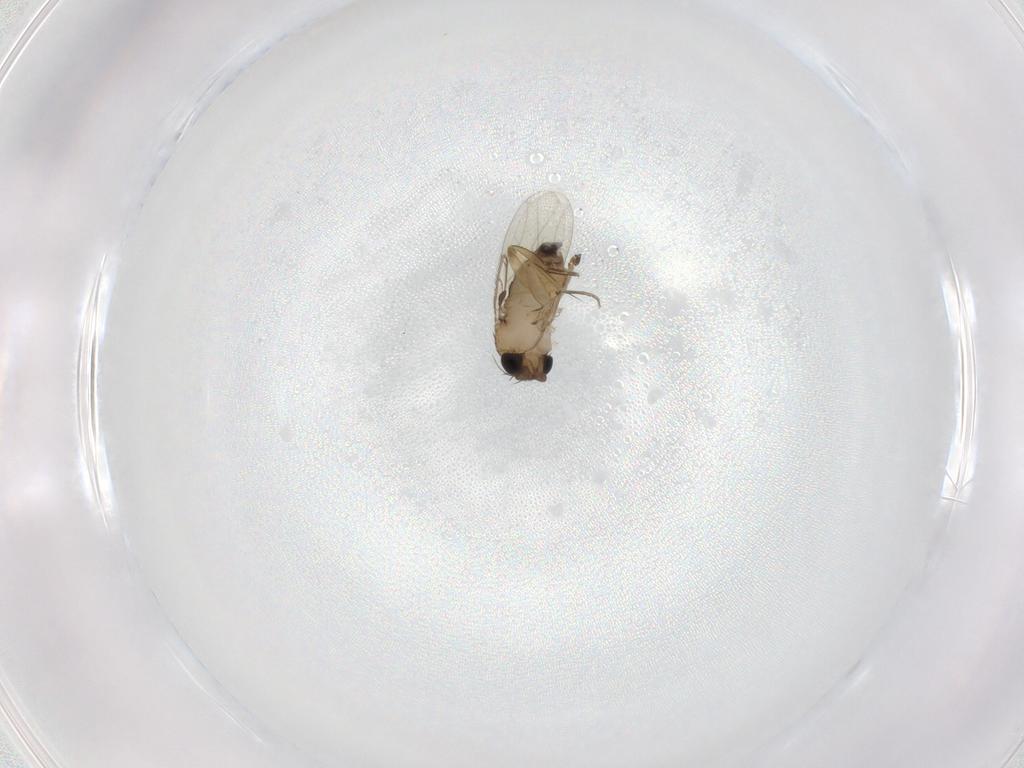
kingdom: Animalia
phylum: Arthropoda
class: Insecta
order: Diptera
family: Phoridae
